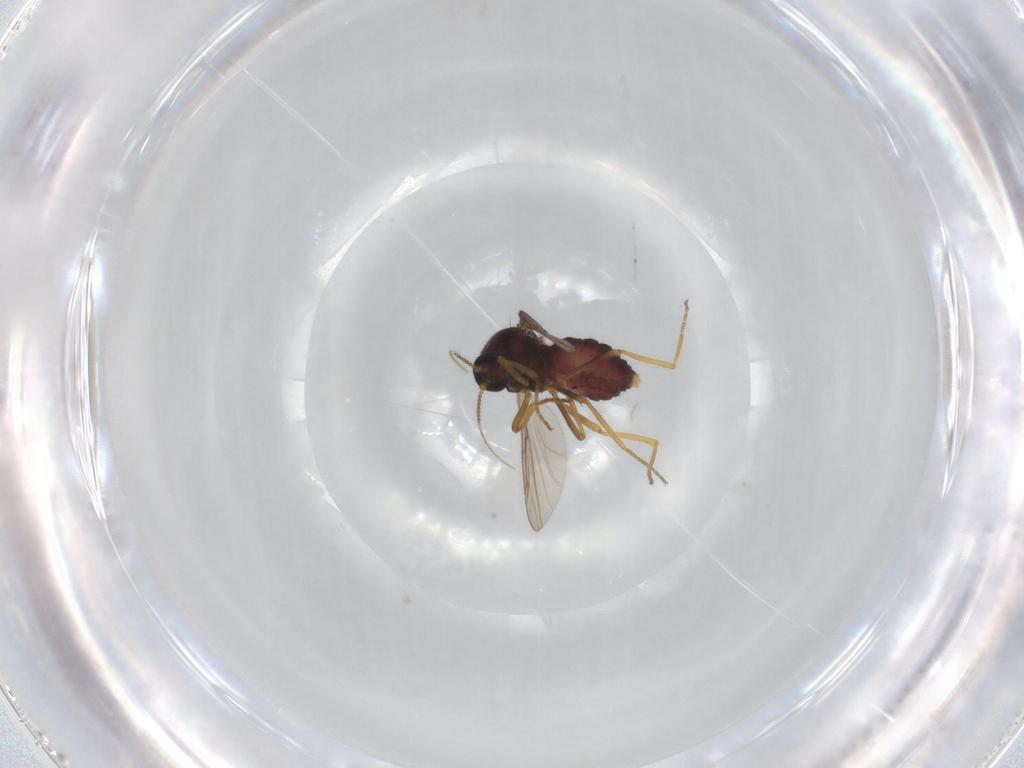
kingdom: Animalia
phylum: Arthropoda
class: Insecta
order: Diptera
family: Ceratopogonidae
